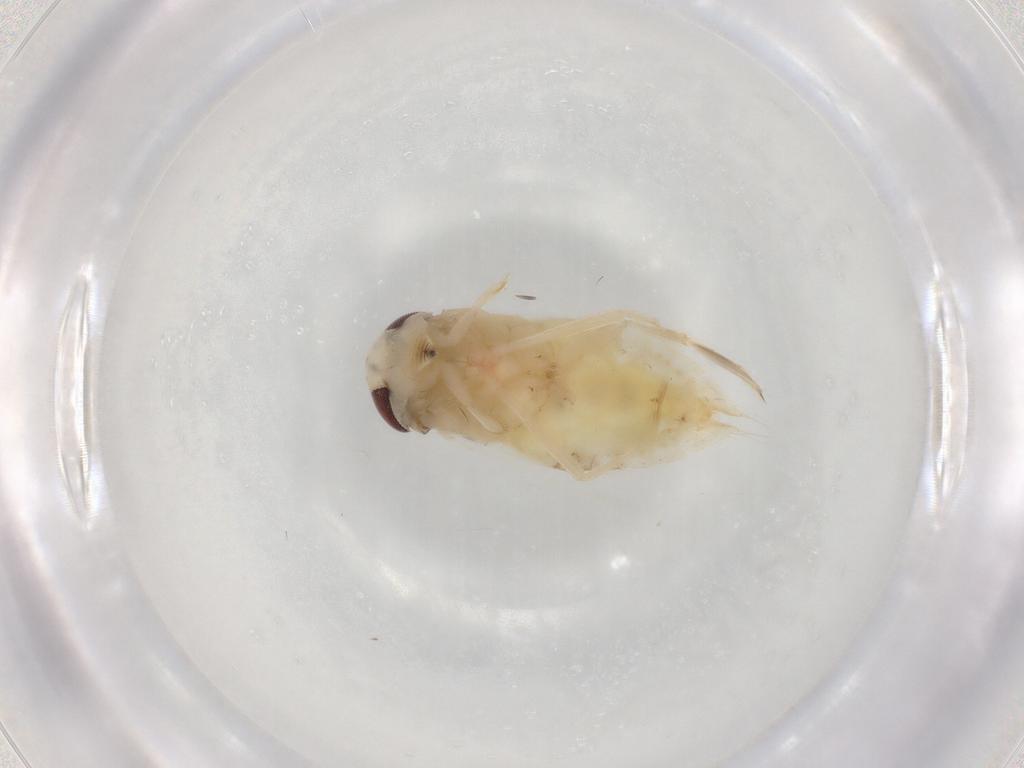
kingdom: Animalia
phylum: Arthropoda
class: Insecta
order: Hemiptera
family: Corixidae
